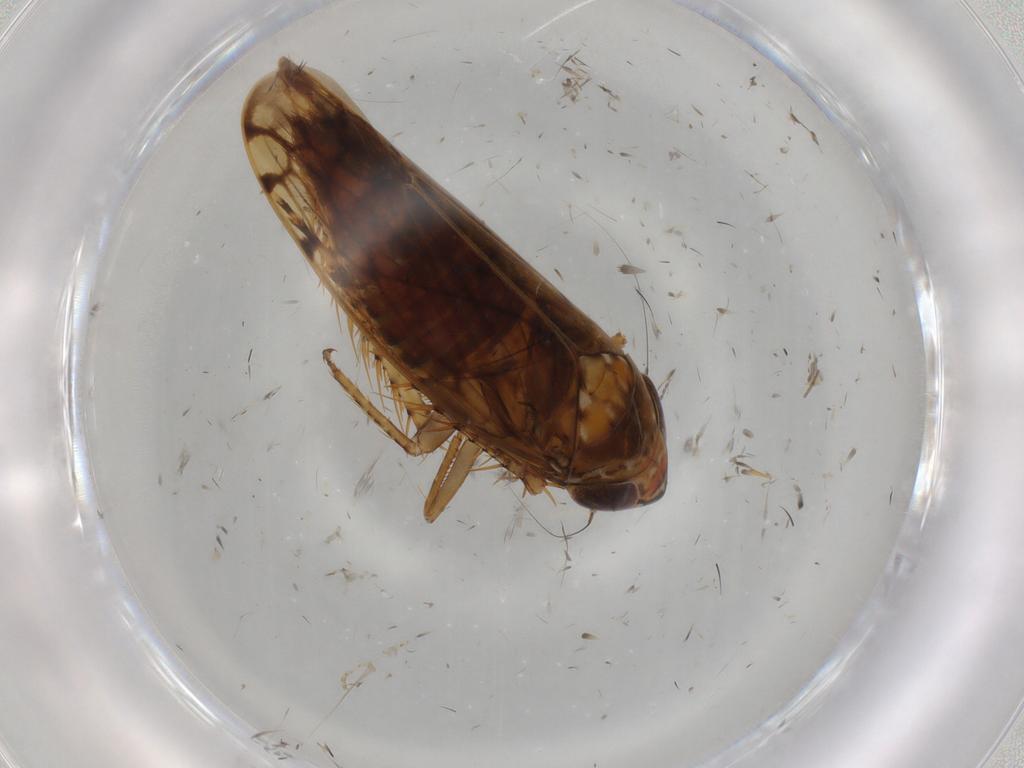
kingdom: Animalia
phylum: Arthropoda
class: Insecta
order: Hemiptera
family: Cicadellidae
